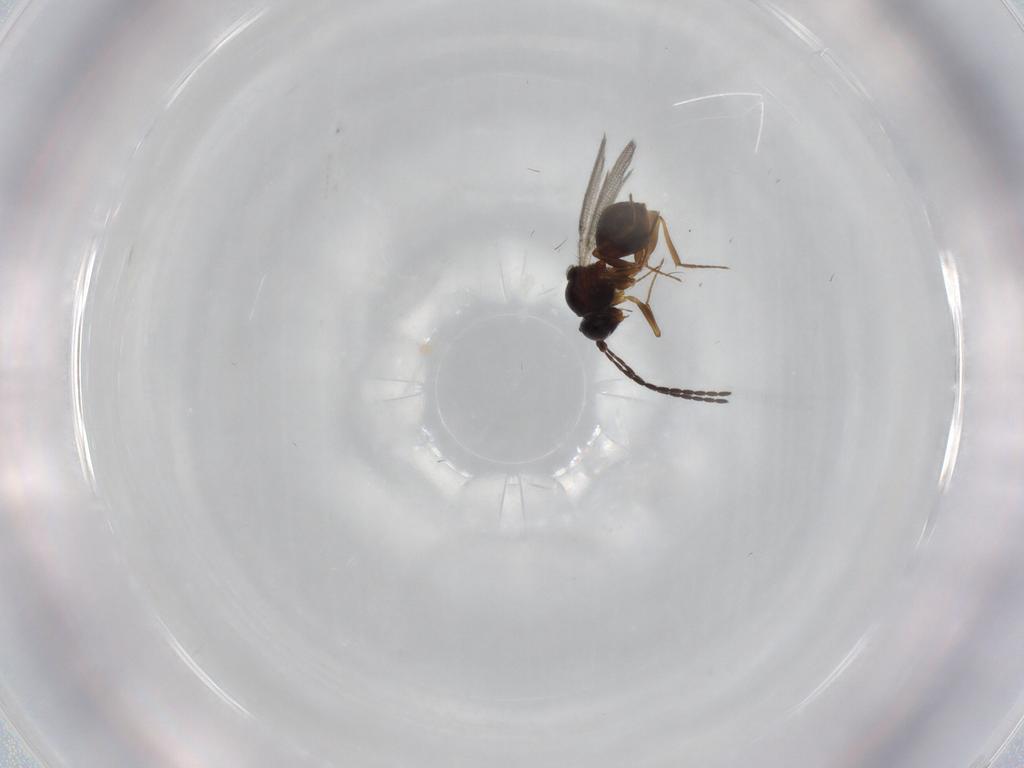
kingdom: Animalia
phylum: Arthropoda
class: Insecta
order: Hymenoptera
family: Figitidae
